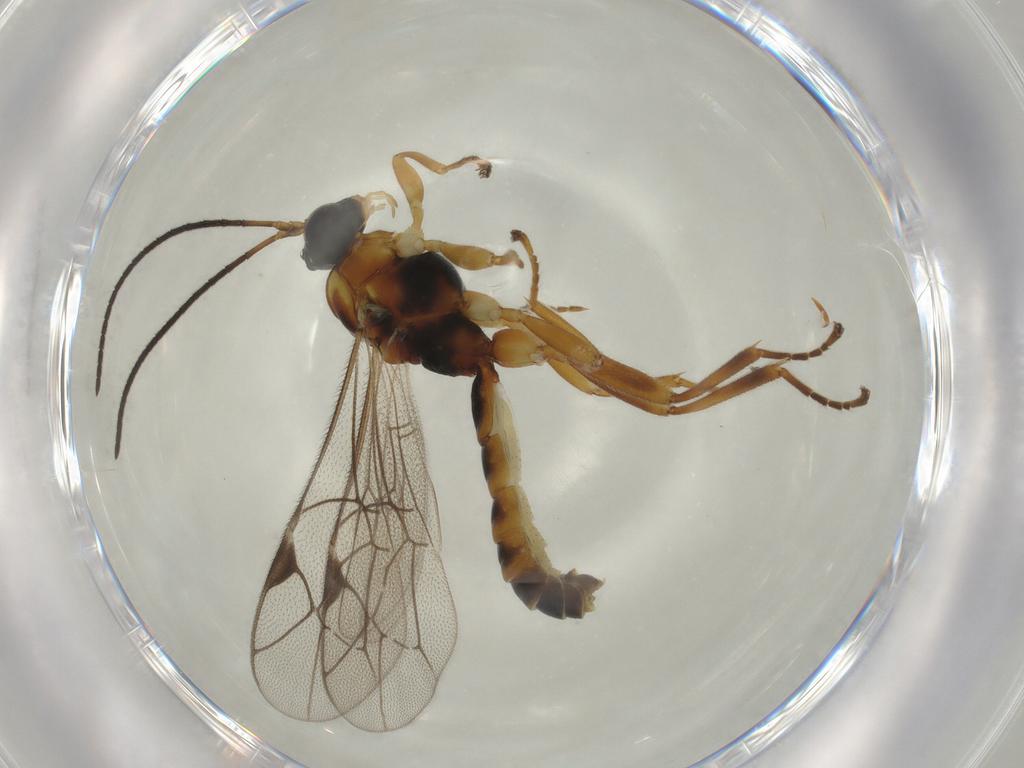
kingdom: Animalia
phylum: Arthropoda
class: Insecta
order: Hymenoptera
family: Ichneumonidae
